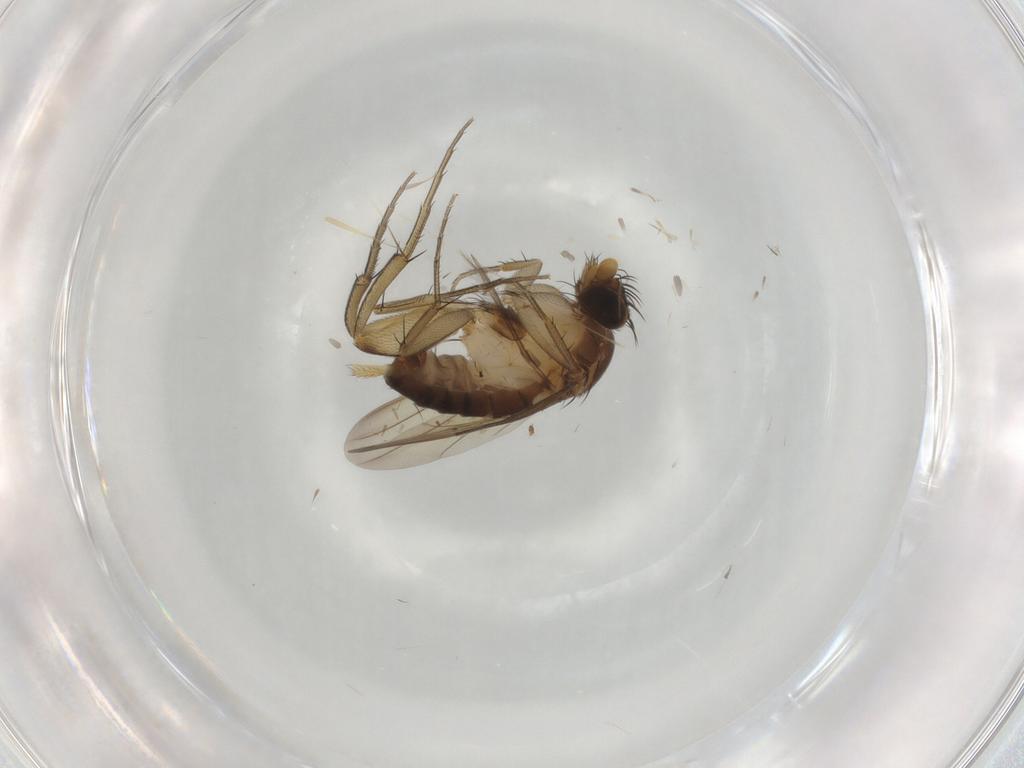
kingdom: Animalia
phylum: Arthropoda
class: Insecta
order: Diptera
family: Phoridae
